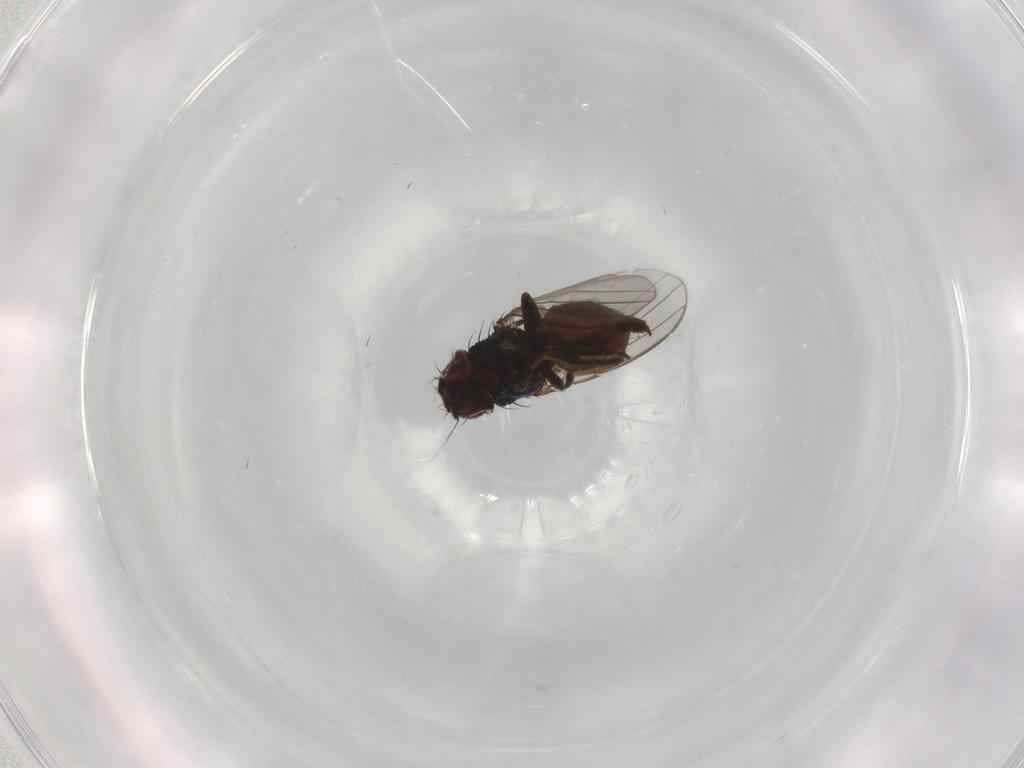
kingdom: Animalia
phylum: Arthropoda
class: Insecta
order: Diptera
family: Milichiidae
